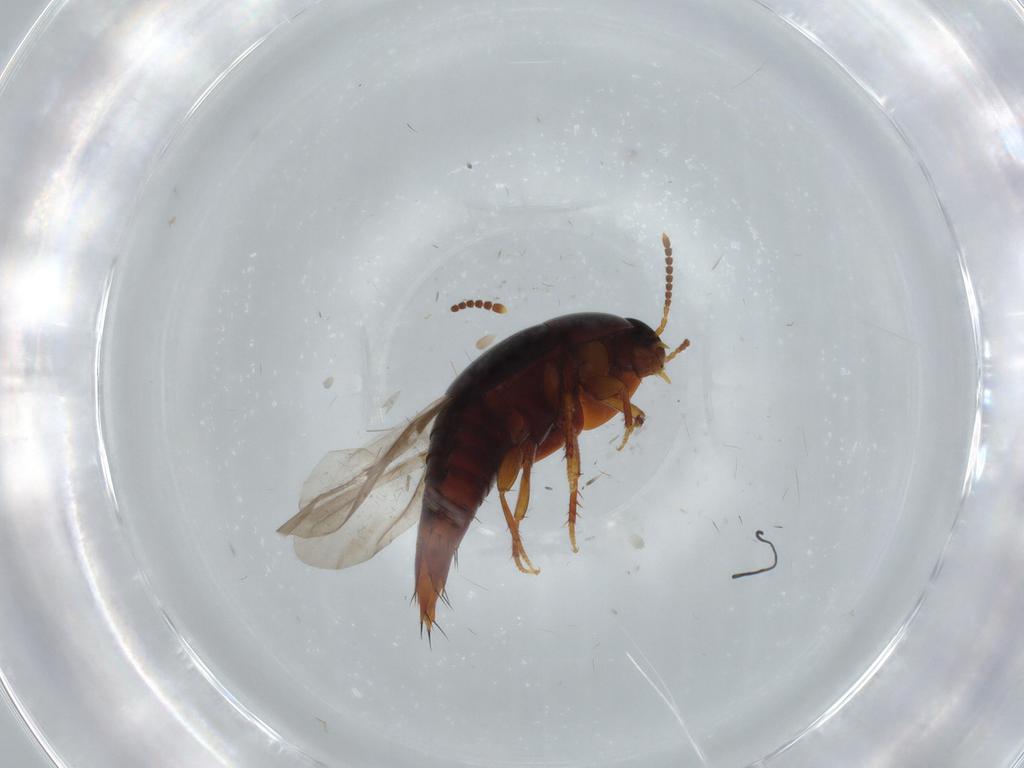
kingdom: Animalia
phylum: Arthropoda
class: Insecta
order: Coleoptera
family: Staphylinidae
